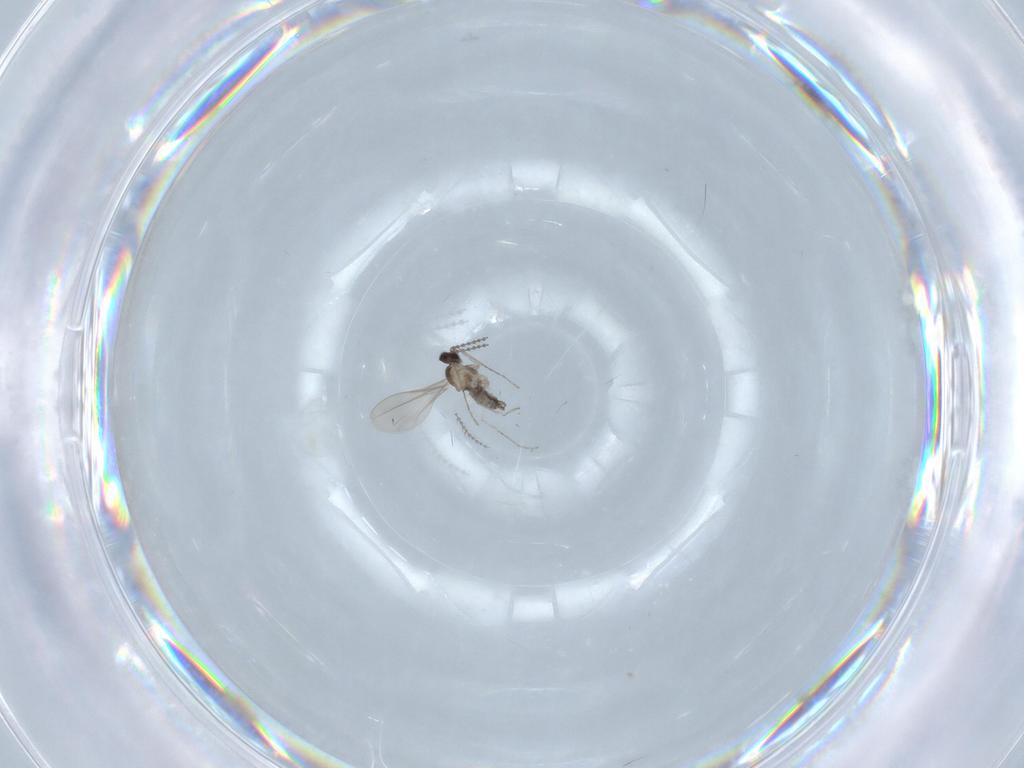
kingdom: Animalia
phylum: Arthropoda
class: Insecta
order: Diptera
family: Cecidomyiidae
